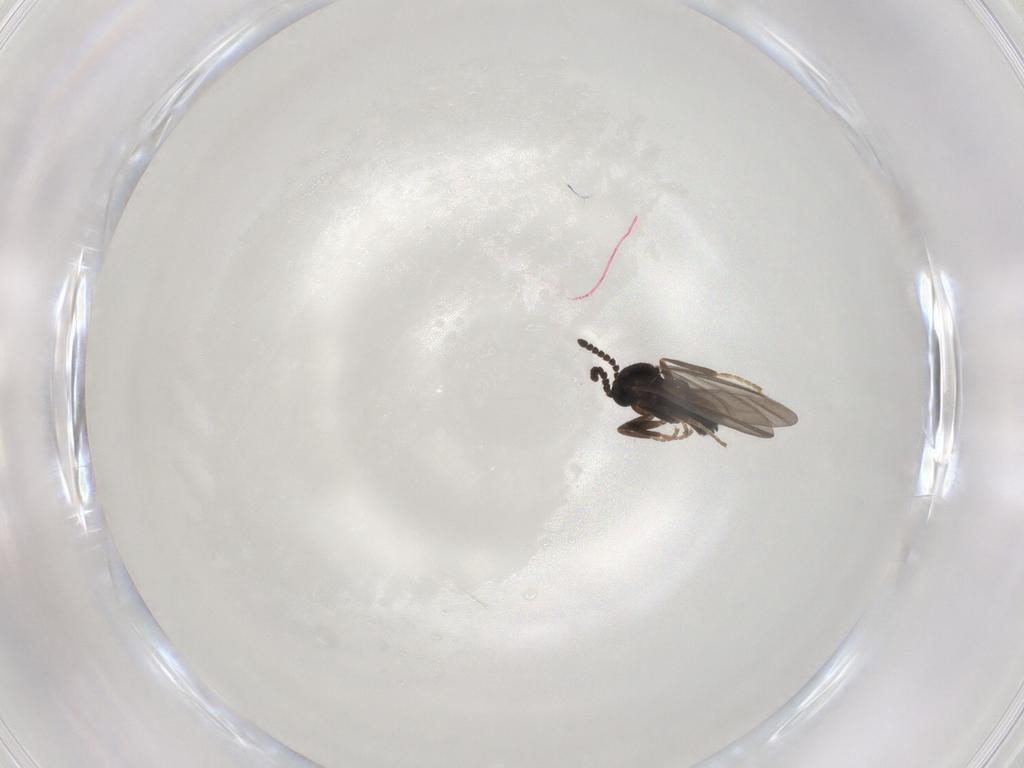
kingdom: Animalia
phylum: Arthropoda
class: Insecta
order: Diptera
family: Scatopsidae
